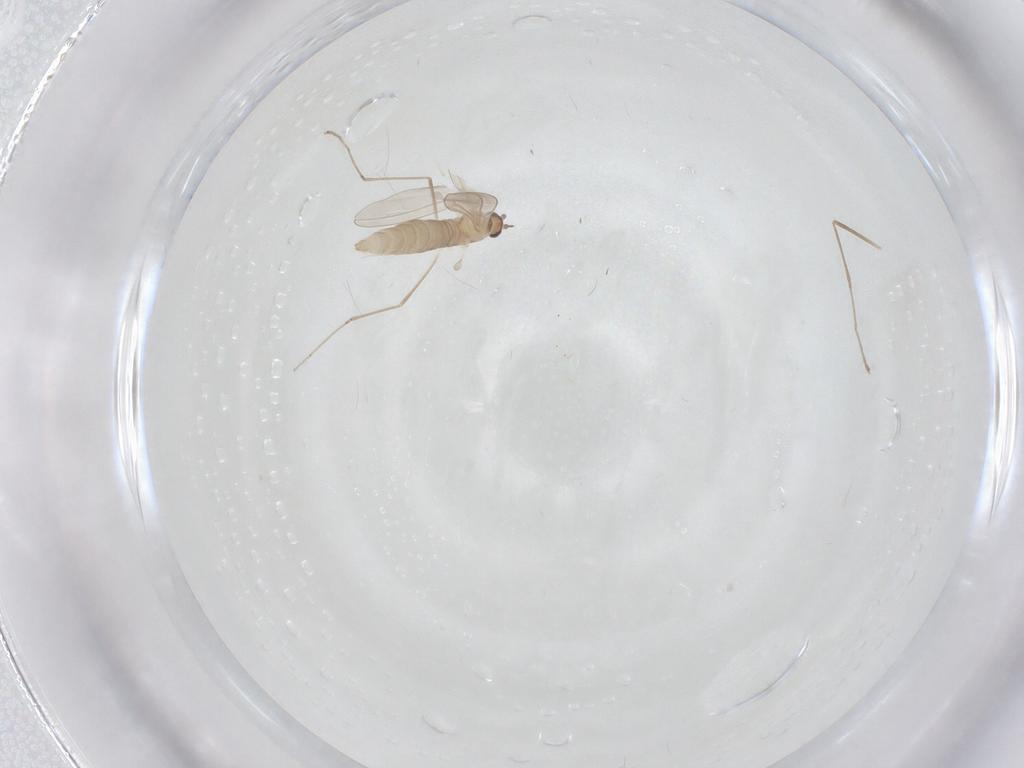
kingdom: Animalia
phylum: Arthropoda
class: Insecta
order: Diptera
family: Cecidomyiidae
